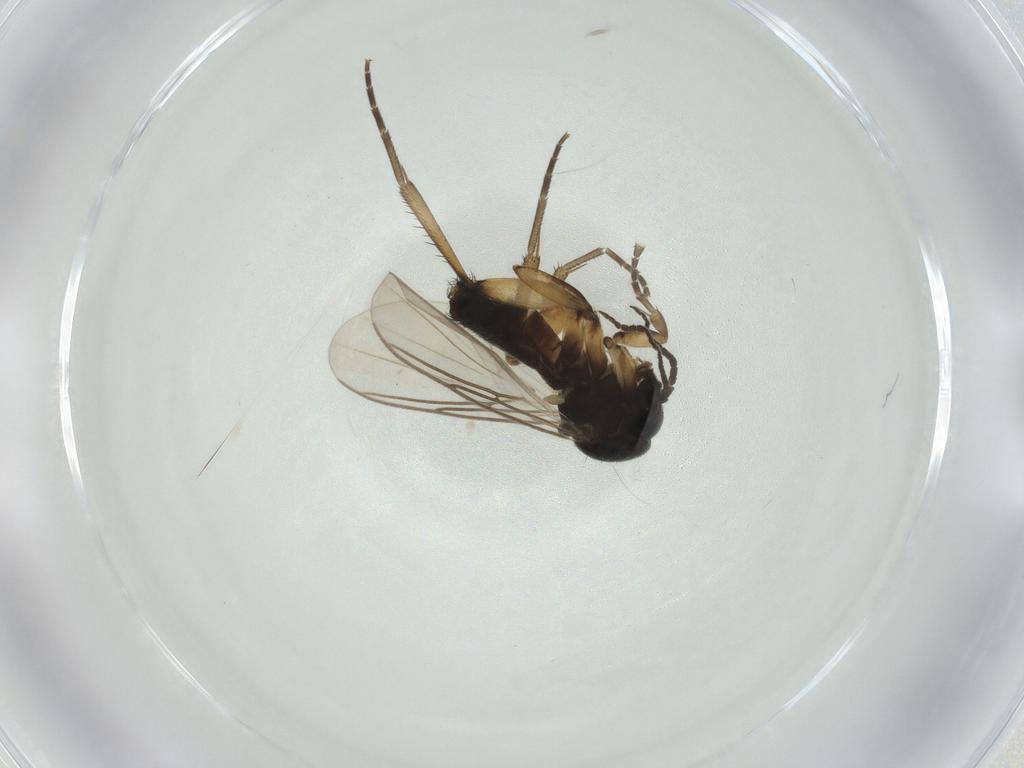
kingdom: Animalia
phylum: Arthropoda
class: Insecta
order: Diptera
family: Mycetophilidae
